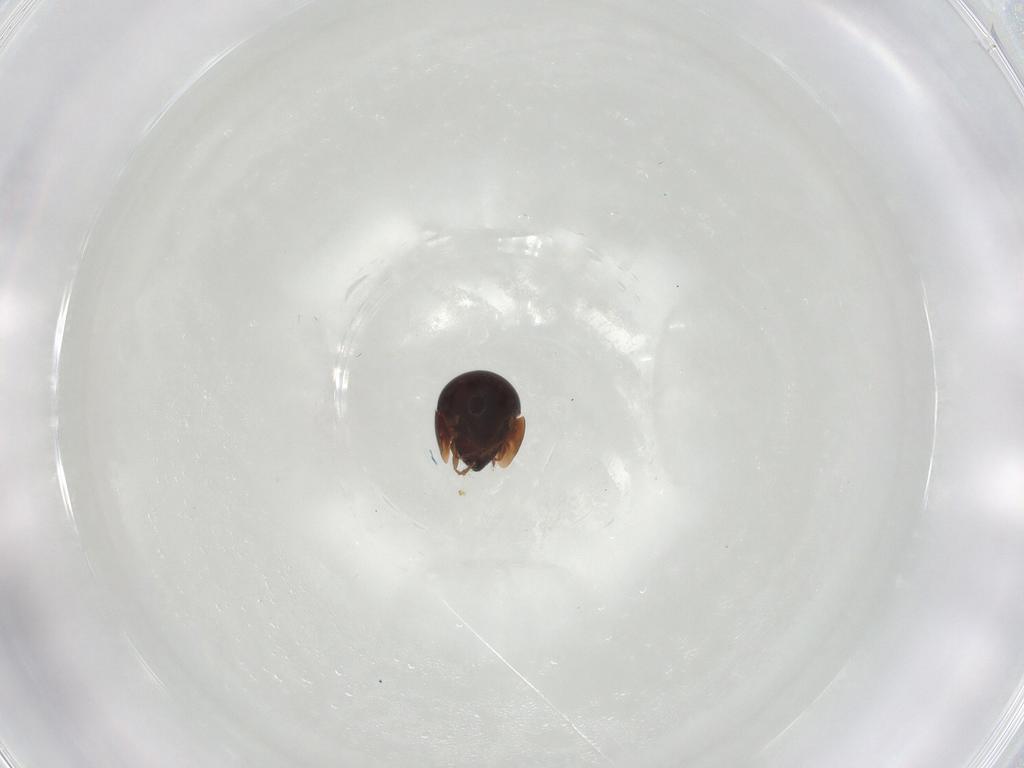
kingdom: Animalia
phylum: Arthropoda
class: Arachnida
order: Sarcoptiformes
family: Galumnidae
